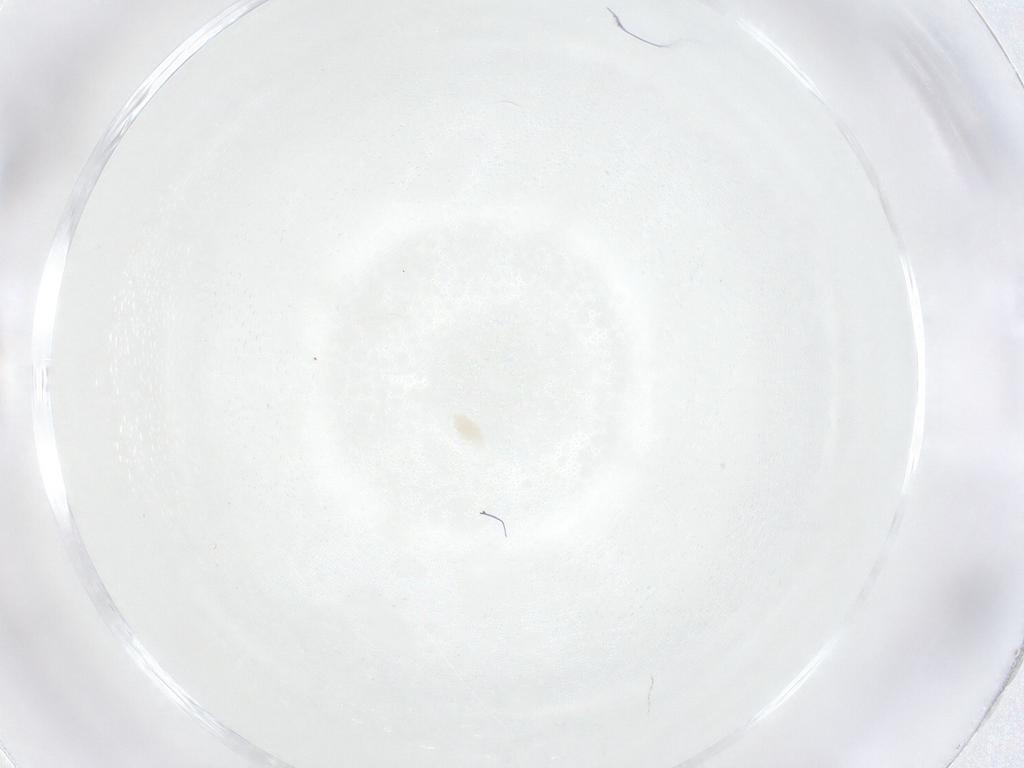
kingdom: Animalia
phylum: Arthropoda
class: Arachnida
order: Trombidiformes
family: Eupodidae
